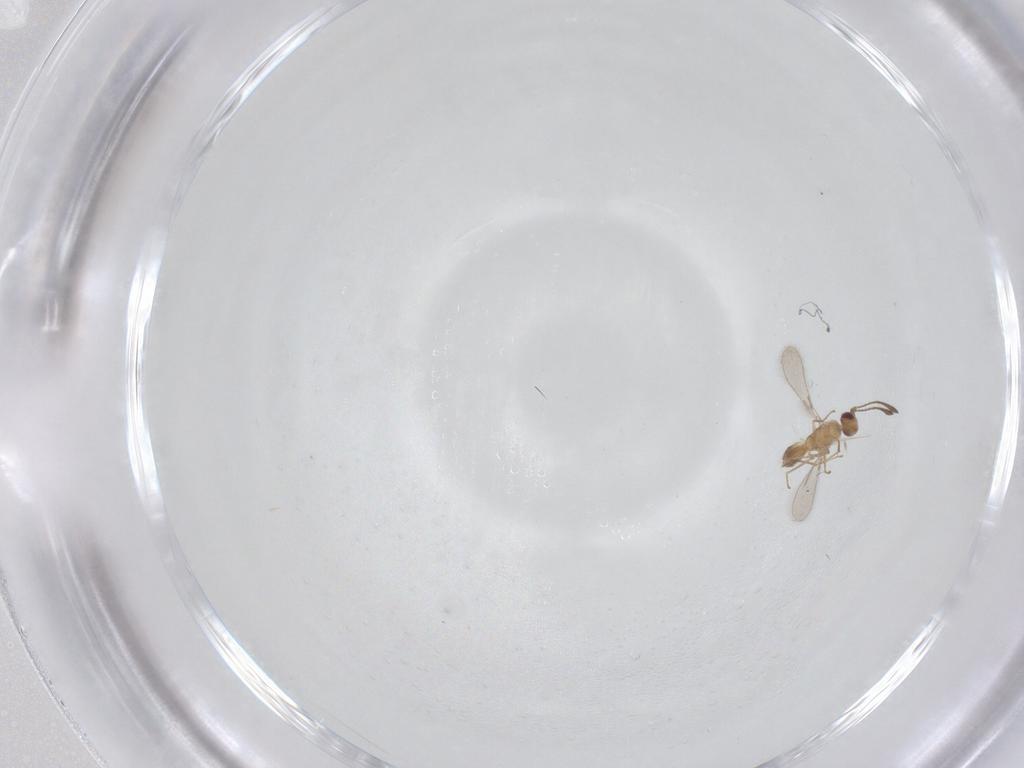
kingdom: Animalia
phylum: Arthropoda
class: Insecta
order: Hymenoptera
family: Mymaridae
